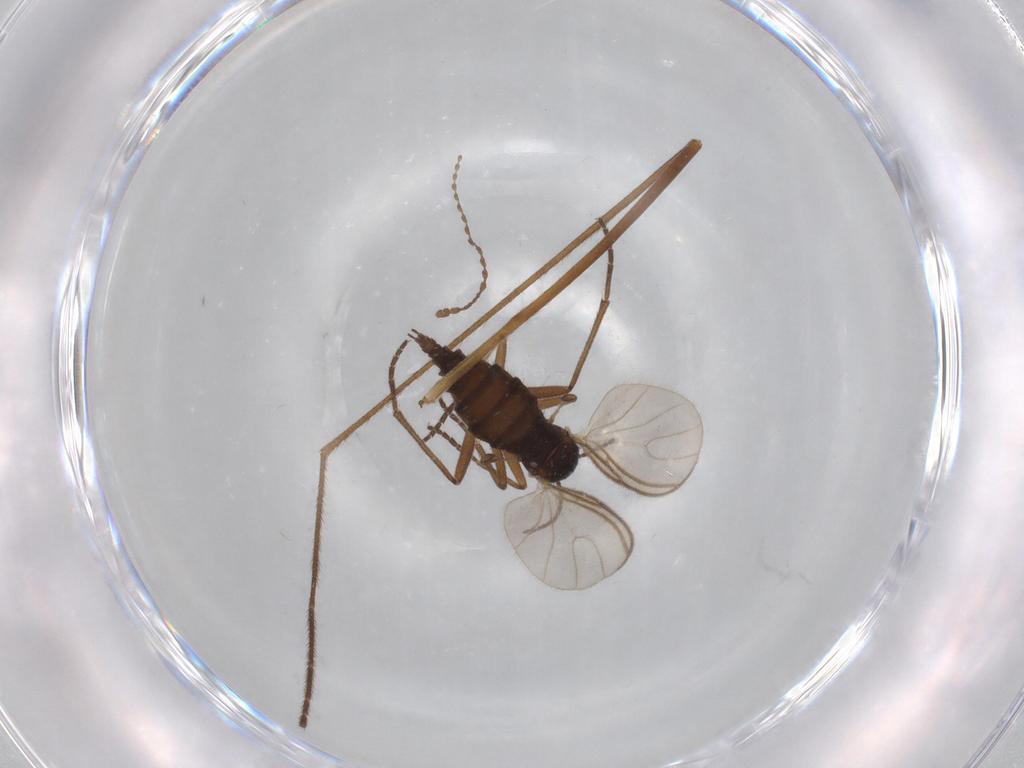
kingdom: Animalia
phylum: Arthropoda
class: Insecta
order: Diptera
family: Sciaridae
